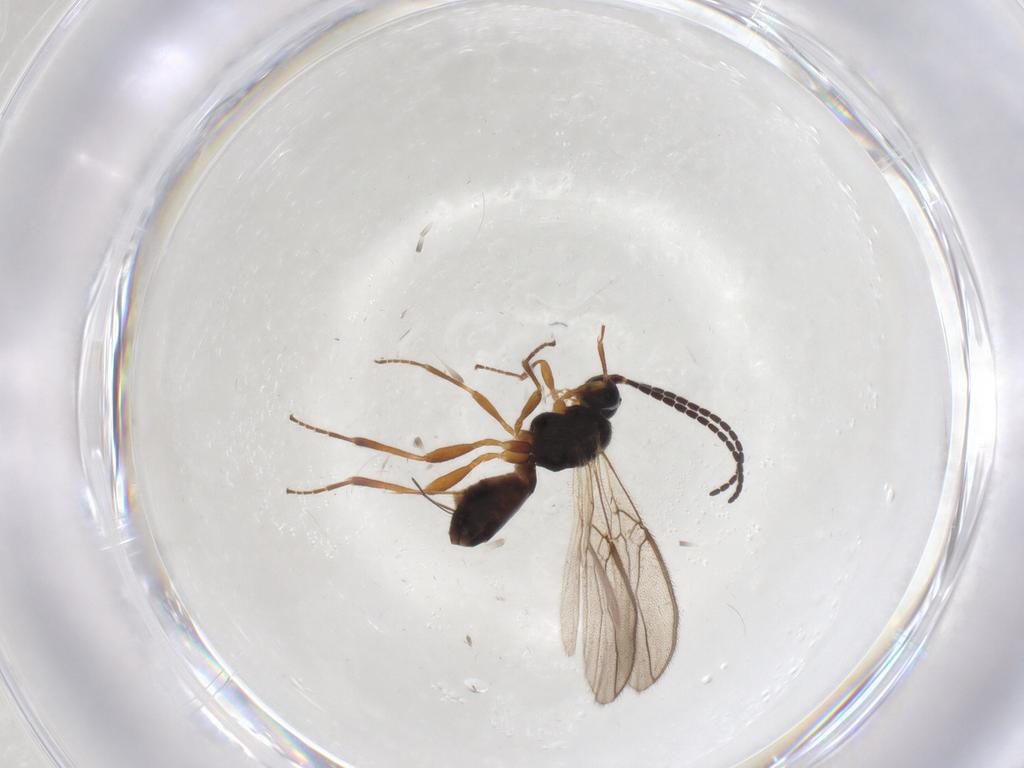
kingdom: Animalia
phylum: Arthropoda
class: Insecta
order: Hymenoptera
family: Braconidae
